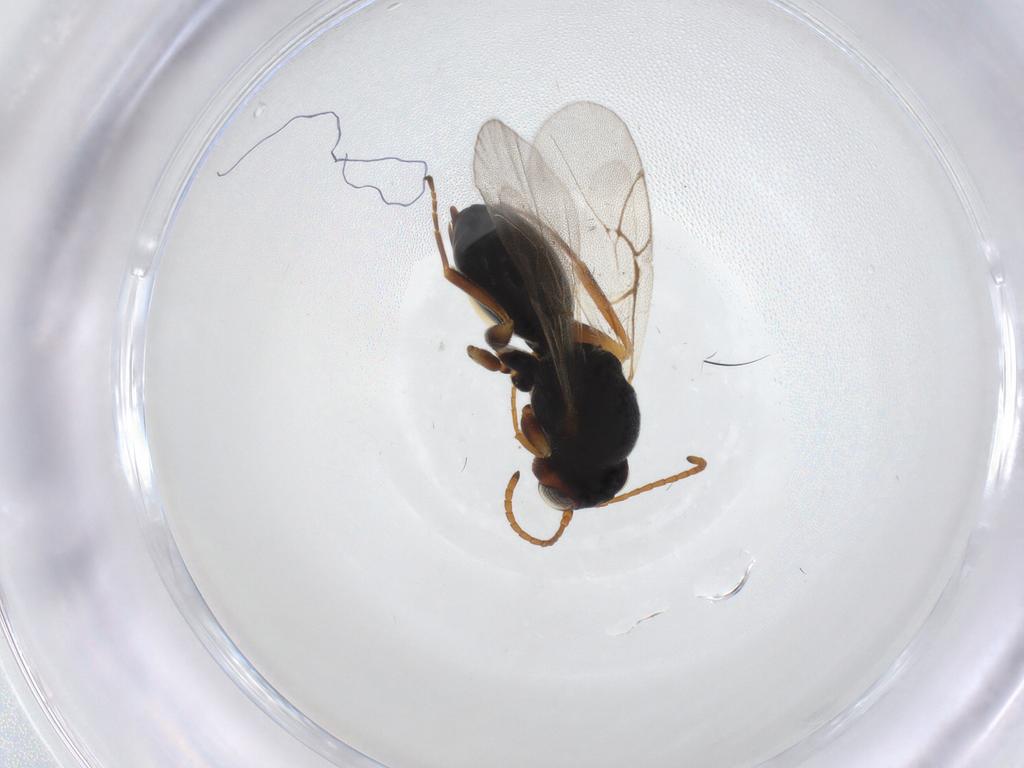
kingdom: Animalia
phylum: Arthropoda
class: Insecta
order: Hymenoptera
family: Cynipidae
